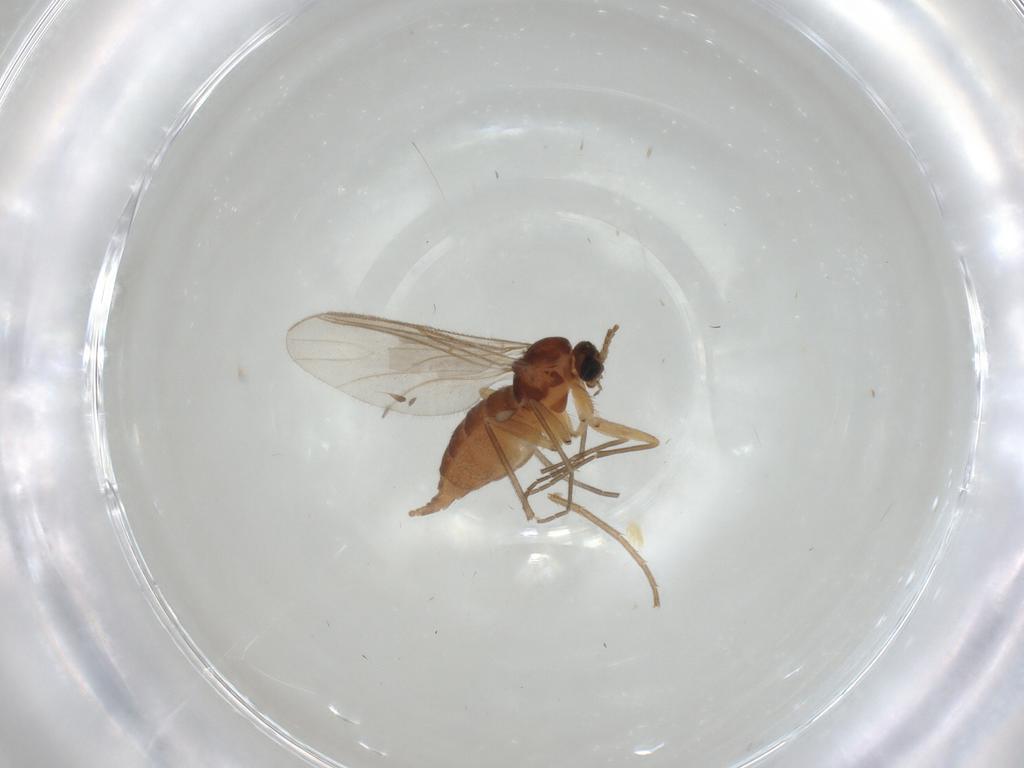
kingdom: Animalia
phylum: Arthropoda
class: Insecta
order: Diptera
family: Sciaridae
